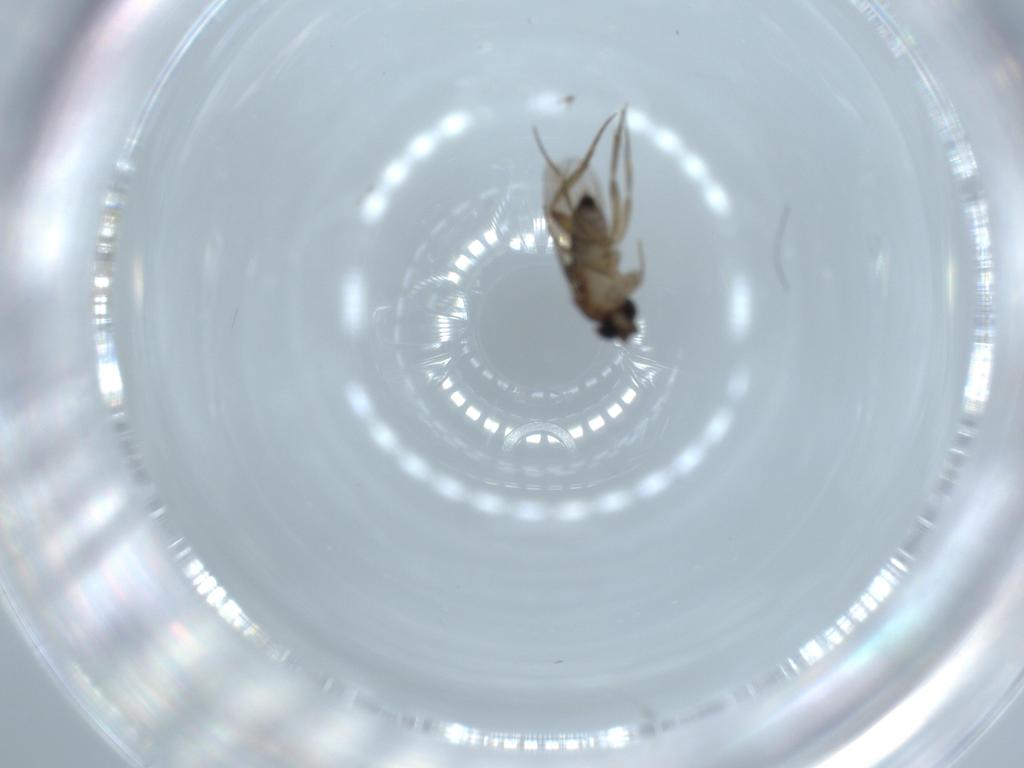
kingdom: Animalia
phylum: Arthropoda
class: Insecta
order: Diptera
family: Phoridae
